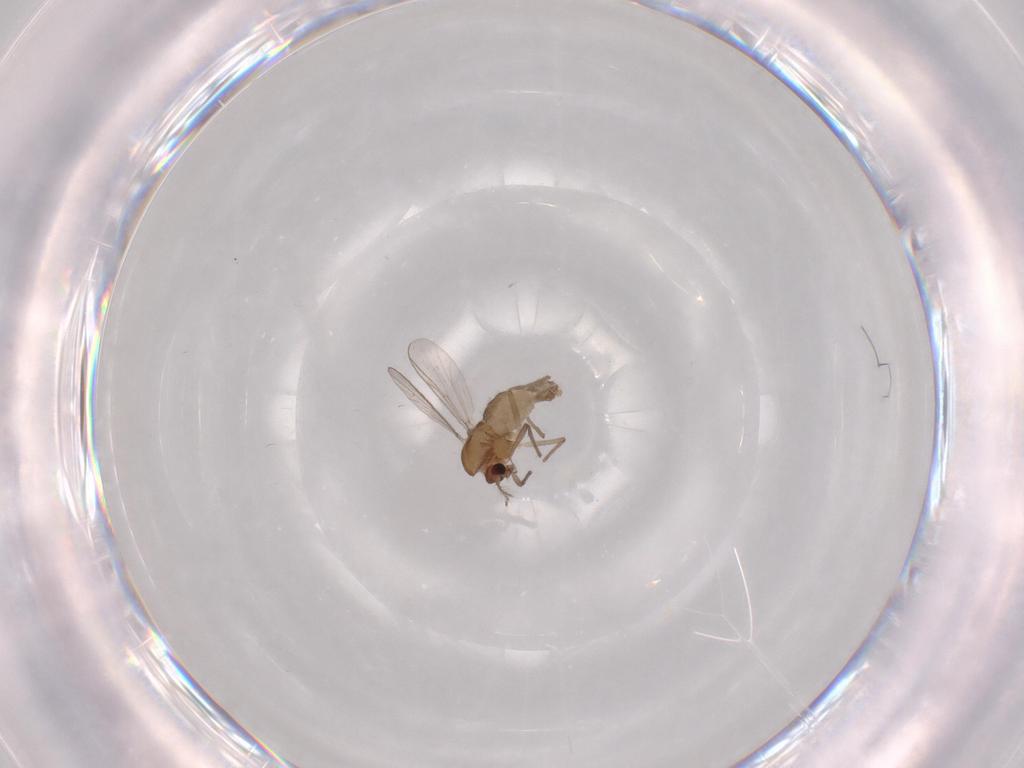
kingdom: Animalia
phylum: Arthropoda
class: Insecta
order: Diptera
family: Chironomidae
